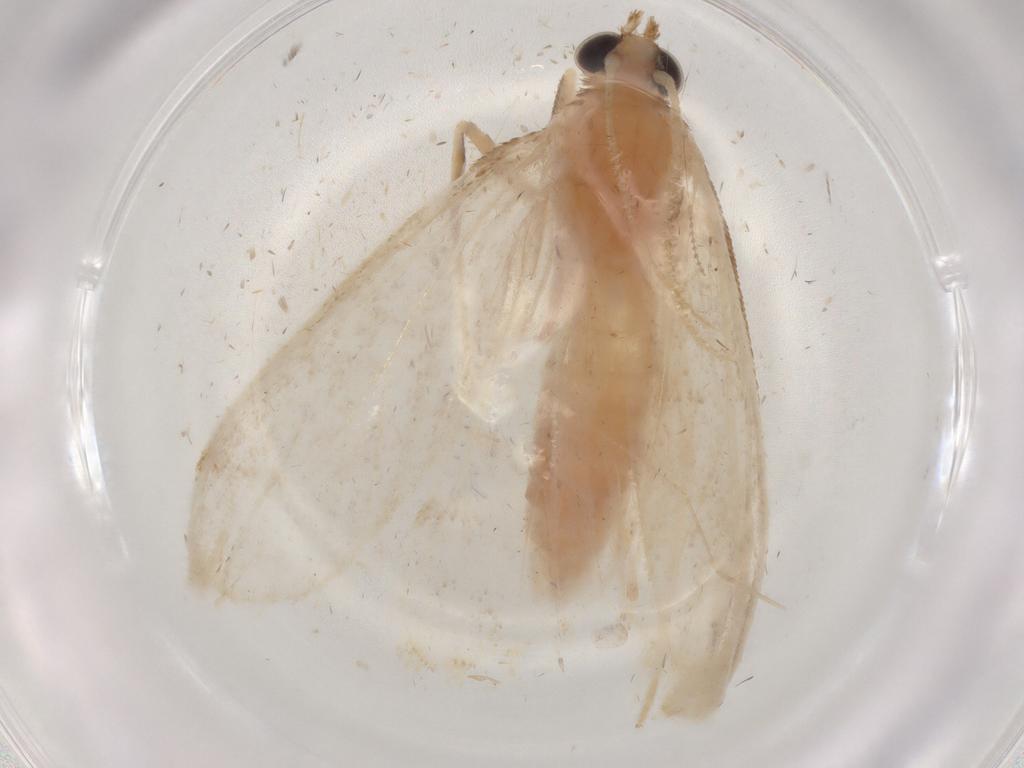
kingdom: Animalia
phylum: Arthropoda
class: Insecta
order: Lepidoptera
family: Crambidae
